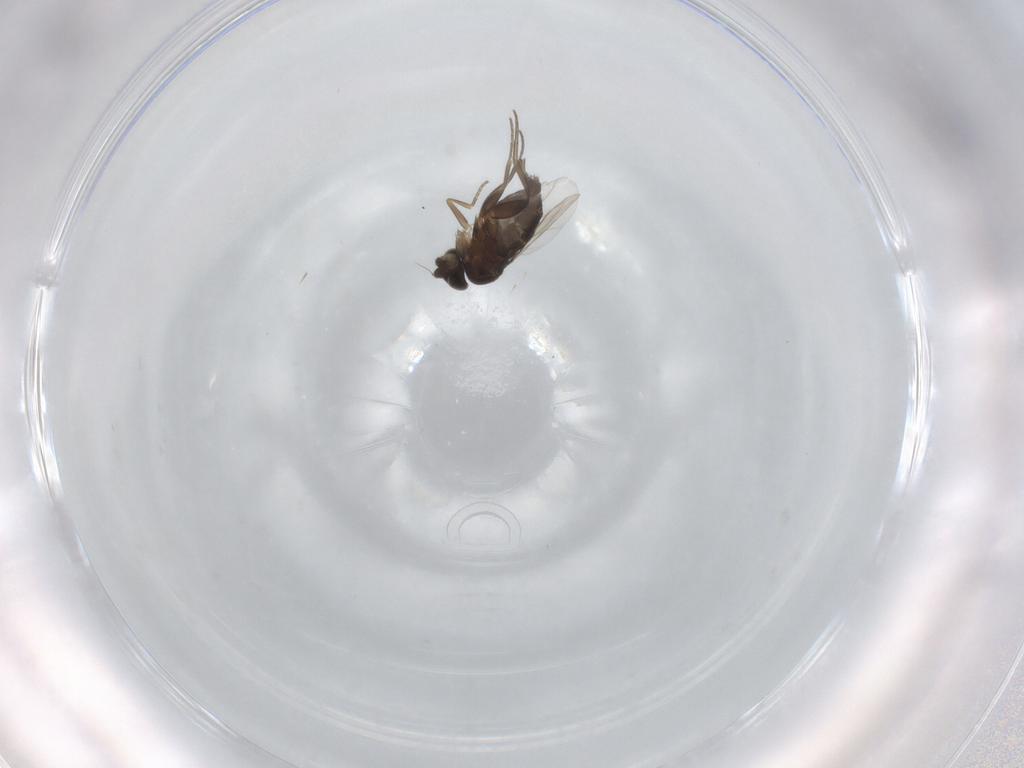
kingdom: Animalia
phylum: Arthropoda
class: Insecta
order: Diptera
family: Phoridae
